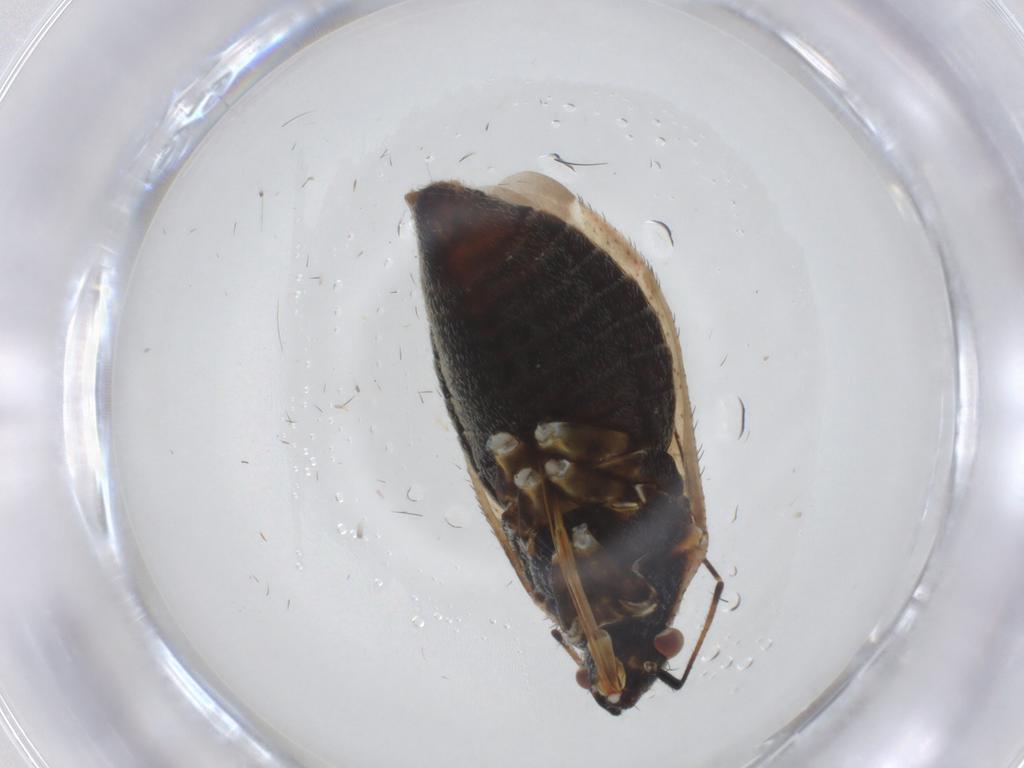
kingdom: Animalia
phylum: Arthropoda
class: Insecta
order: Hemiptera
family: Miridae
